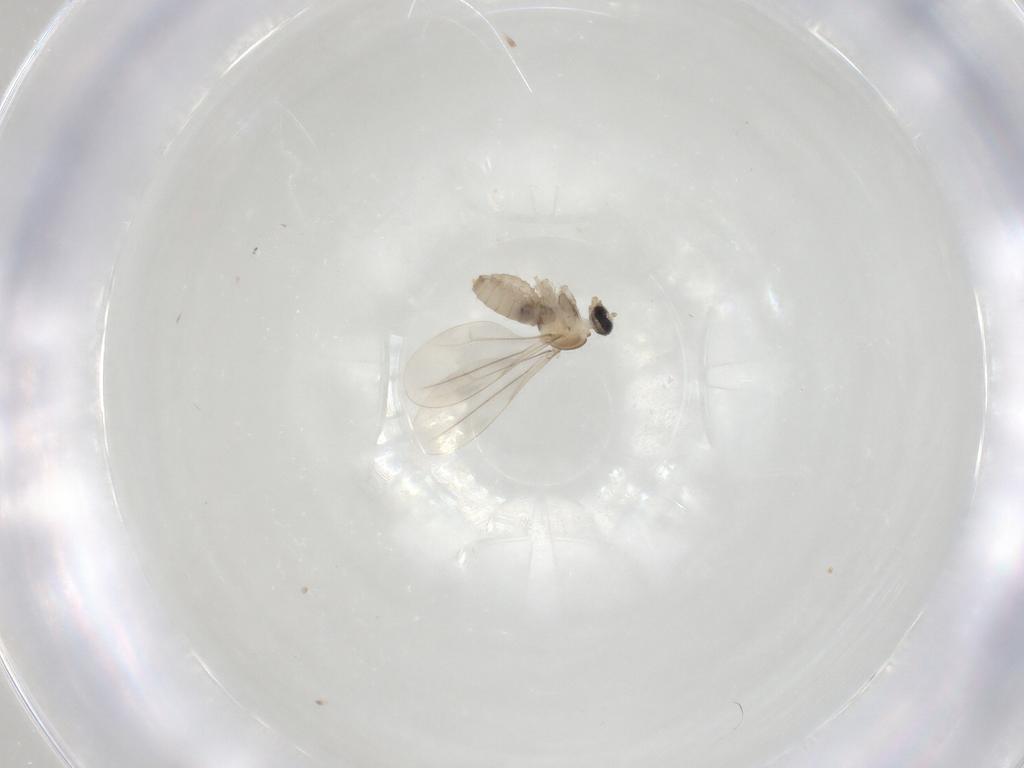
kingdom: Animalia
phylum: Arthropoda
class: Insecta
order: Diptera
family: Cecidomyiidae
